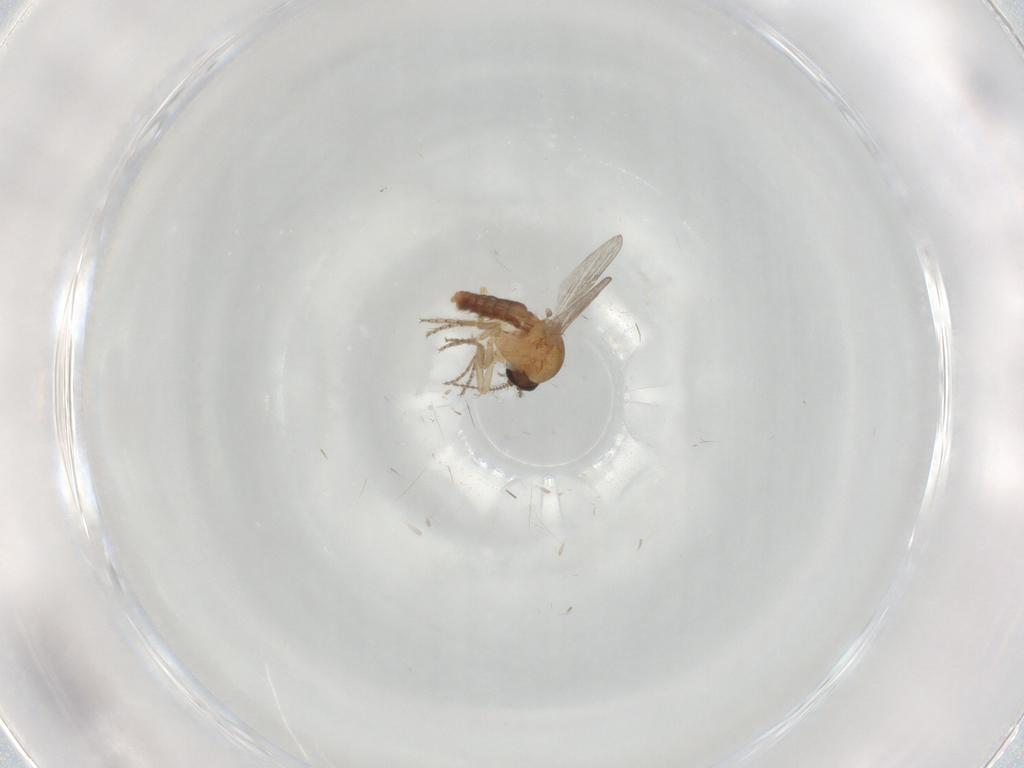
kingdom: Animalia
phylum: Arthropoda
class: Insecta
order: Diptera
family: Ceratopogonidae
